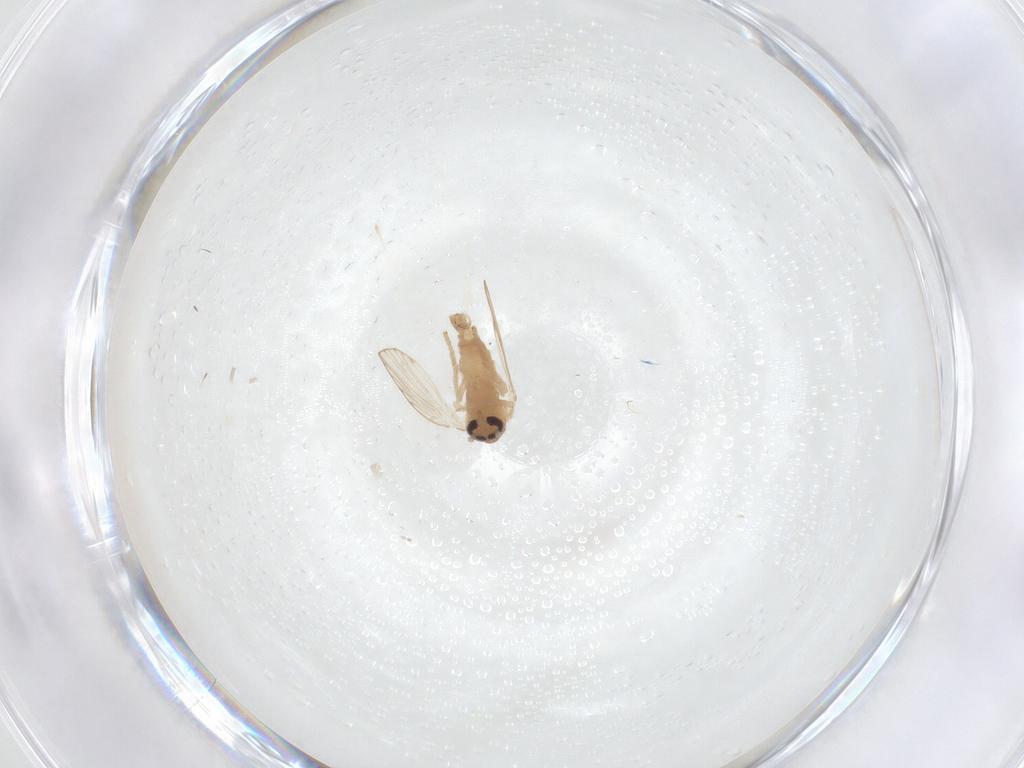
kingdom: Animalia
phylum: Arthropoda
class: Insecta
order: Diptera
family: Psychodidae
